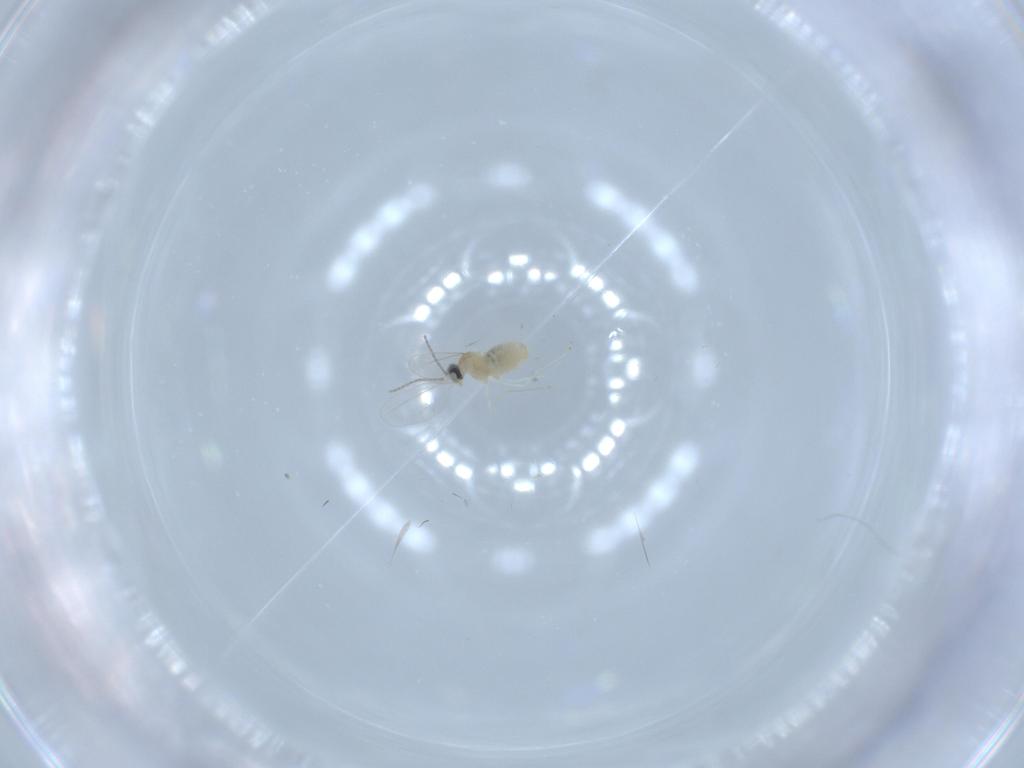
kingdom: Animalia
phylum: Arthropoda
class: Insecta
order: Diptera
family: Cecidomyiidae
